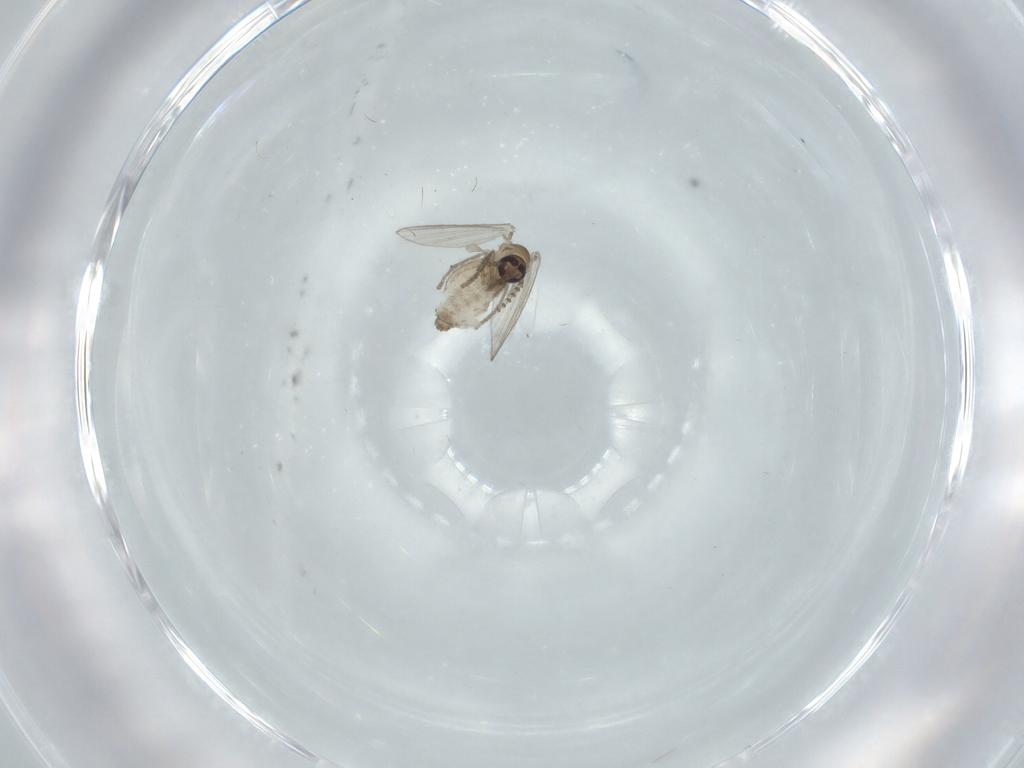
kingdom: Animalia
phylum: Arthropoda
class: Insecta
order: Diptera
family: Psychodidae
